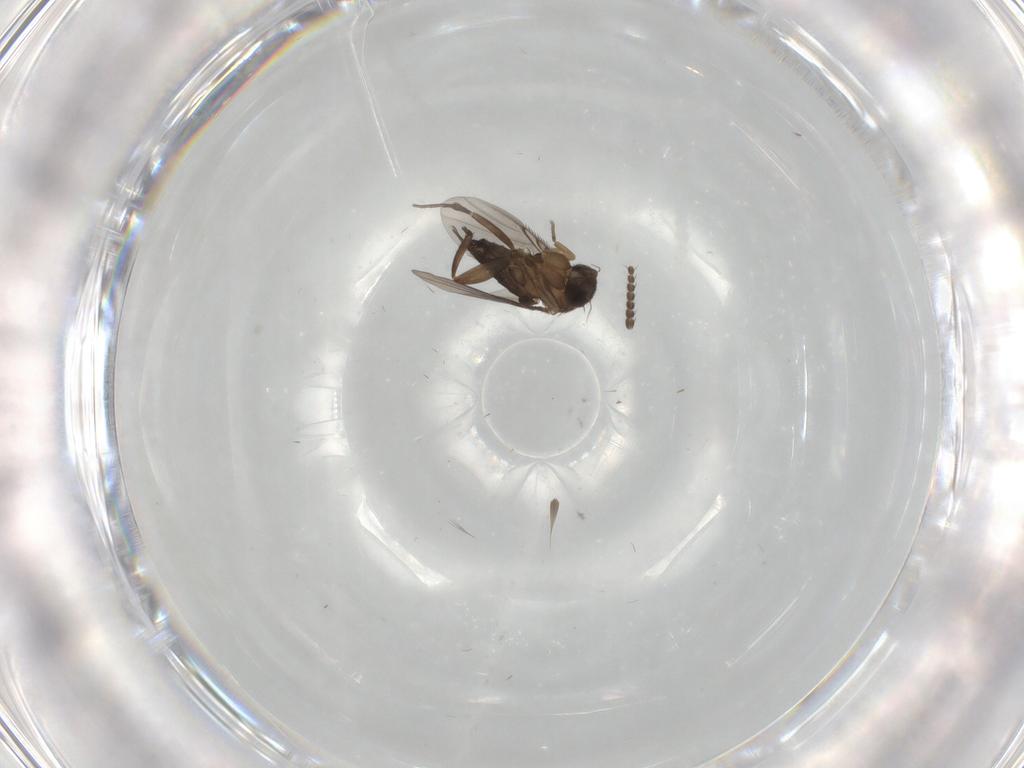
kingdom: Animalia
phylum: Arthropoda
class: Insecta
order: Diptera
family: Phoridae
